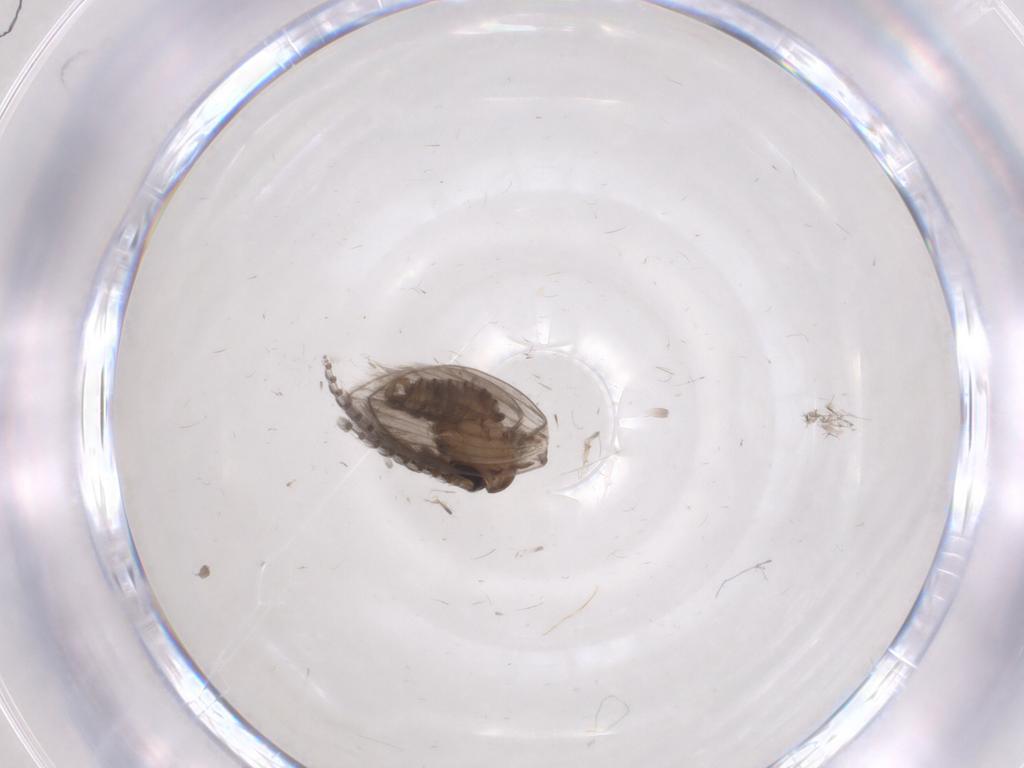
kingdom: Animalia
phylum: Arthropoda
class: Insecta
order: Diptera
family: Psychodidae
